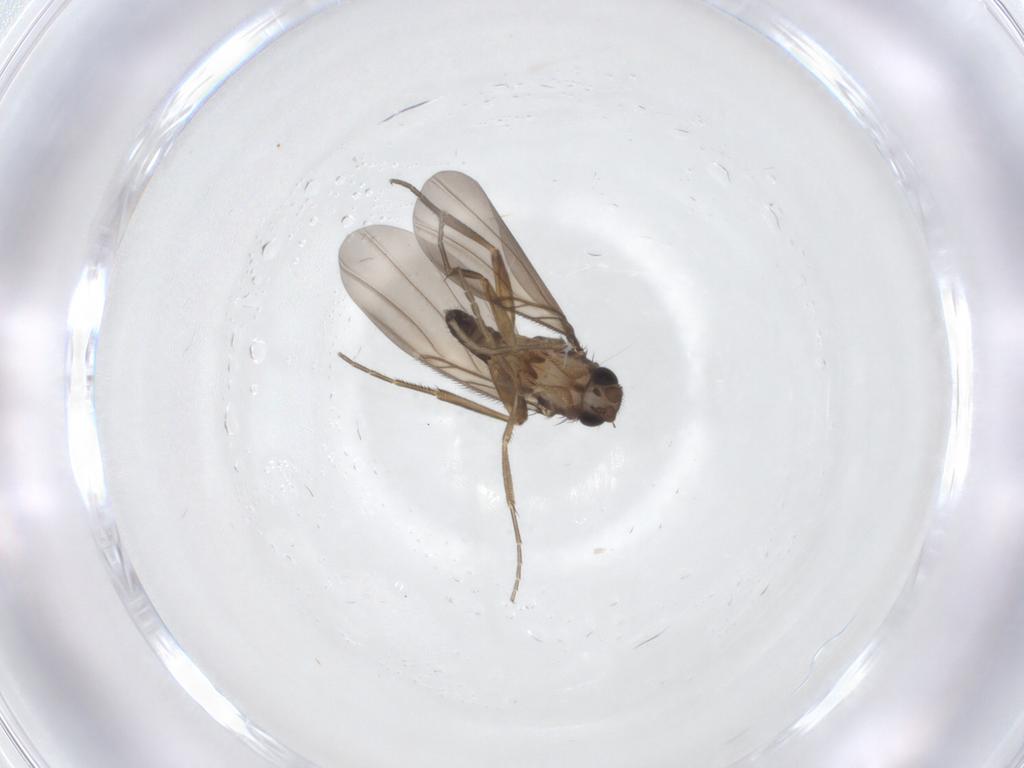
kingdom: Animalia
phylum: Arthropoda
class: Insecta
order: Diptera
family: Phoridae
